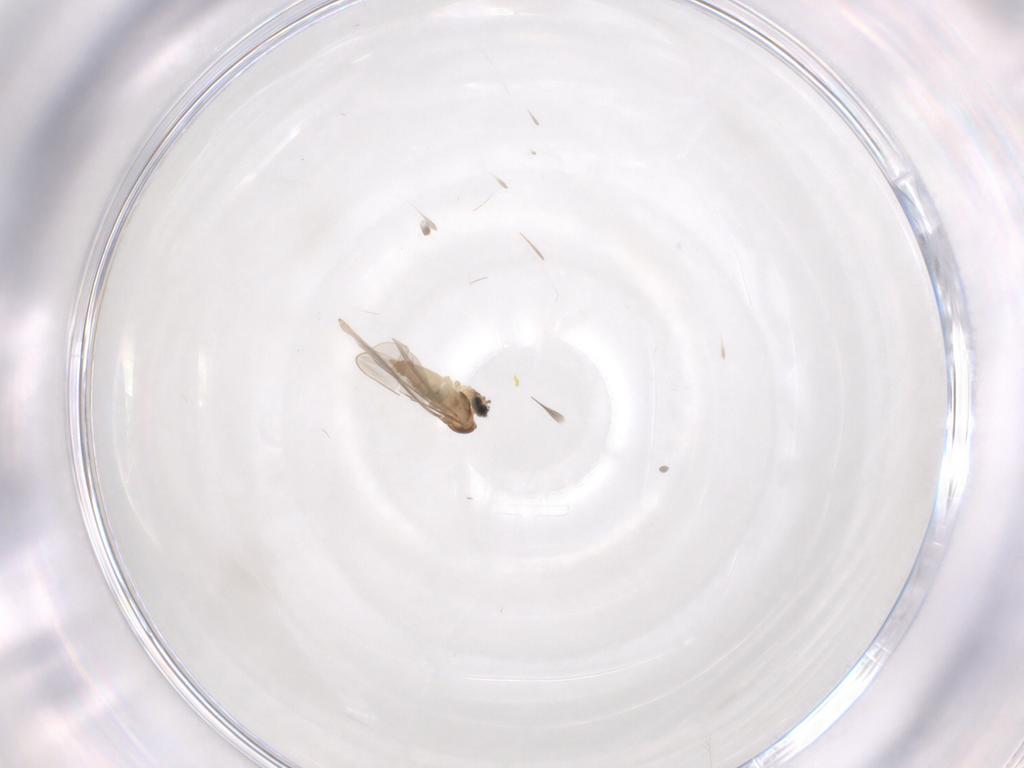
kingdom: Animalia
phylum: Arthropoda
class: Insecta
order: Diptera
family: Cecidomyiidae
